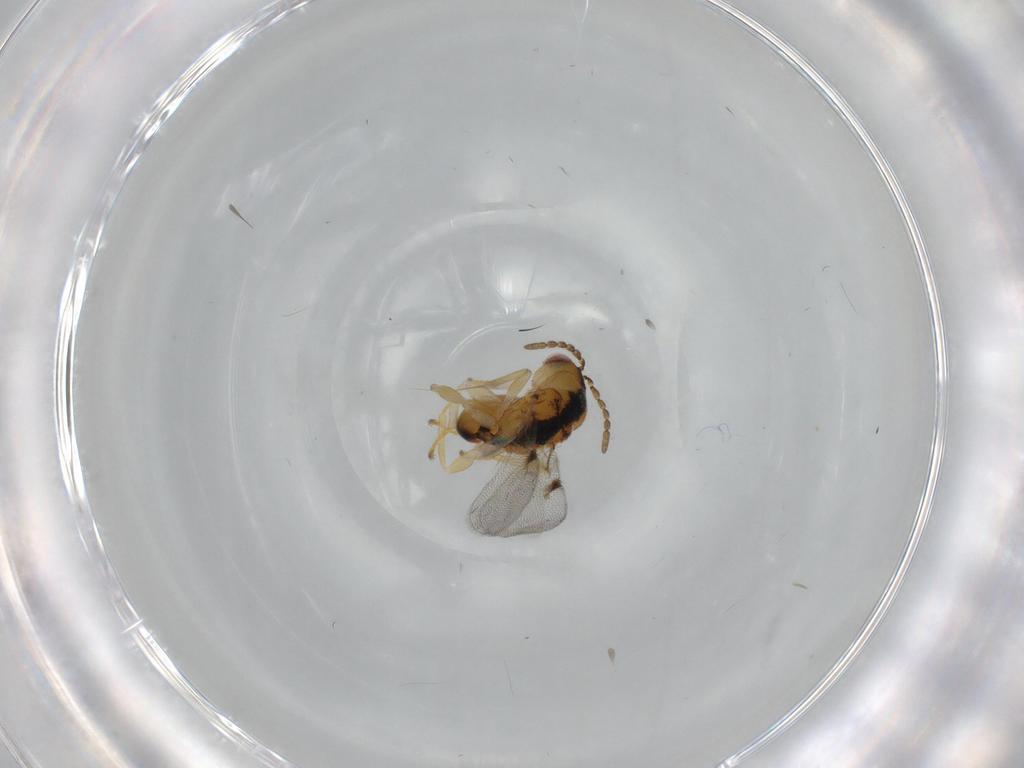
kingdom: Animalia
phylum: Arthropoda
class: Insecta
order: Hymenoptera
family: Eurytomidae
